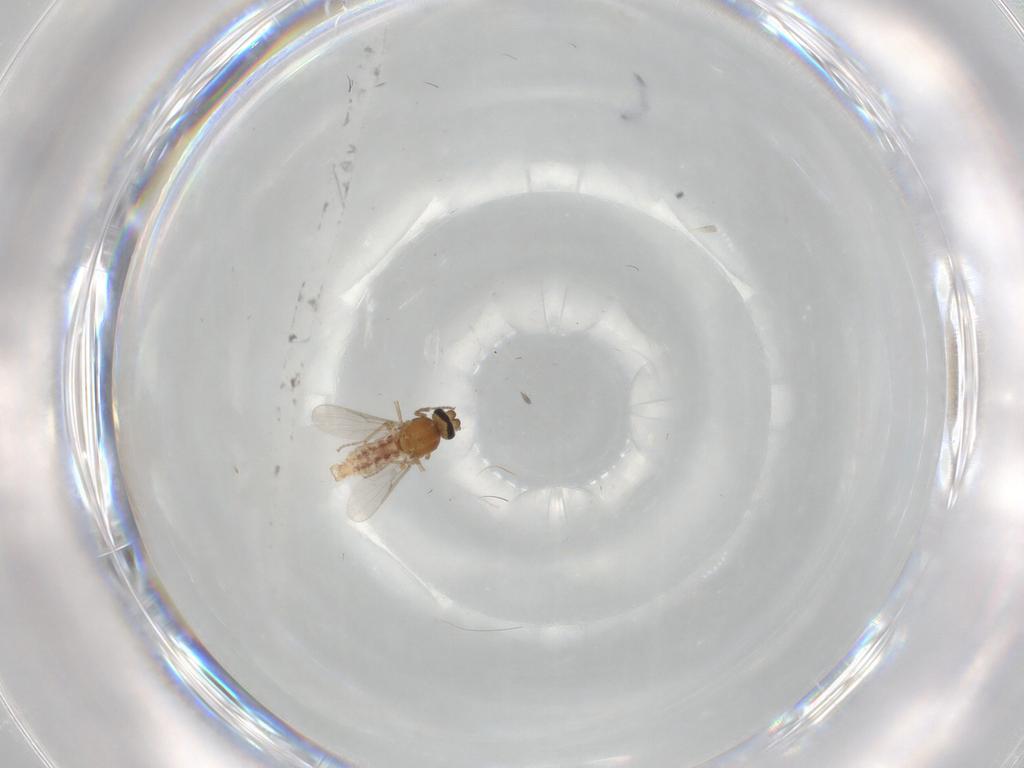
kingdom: Animalia
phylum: Arthropoda
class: Insecta
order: Diptera
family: Ceratopogonidae
